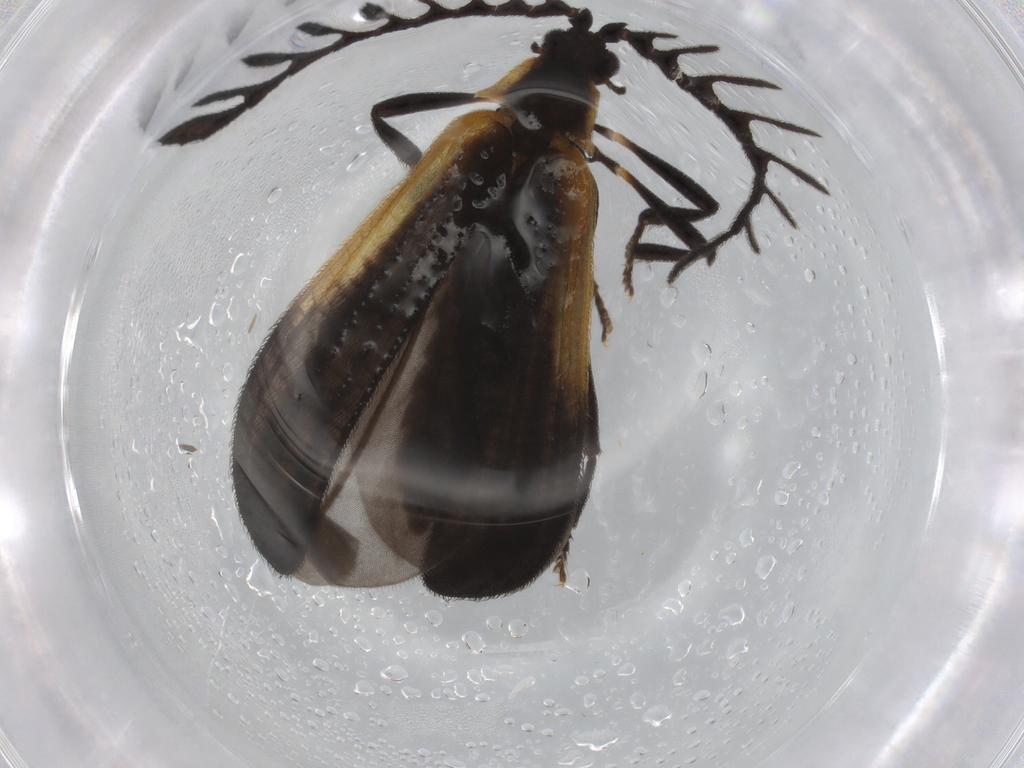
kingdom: Animalia
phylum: Arthropoda
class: Insecta
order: Coleoptera
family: Lycidae
